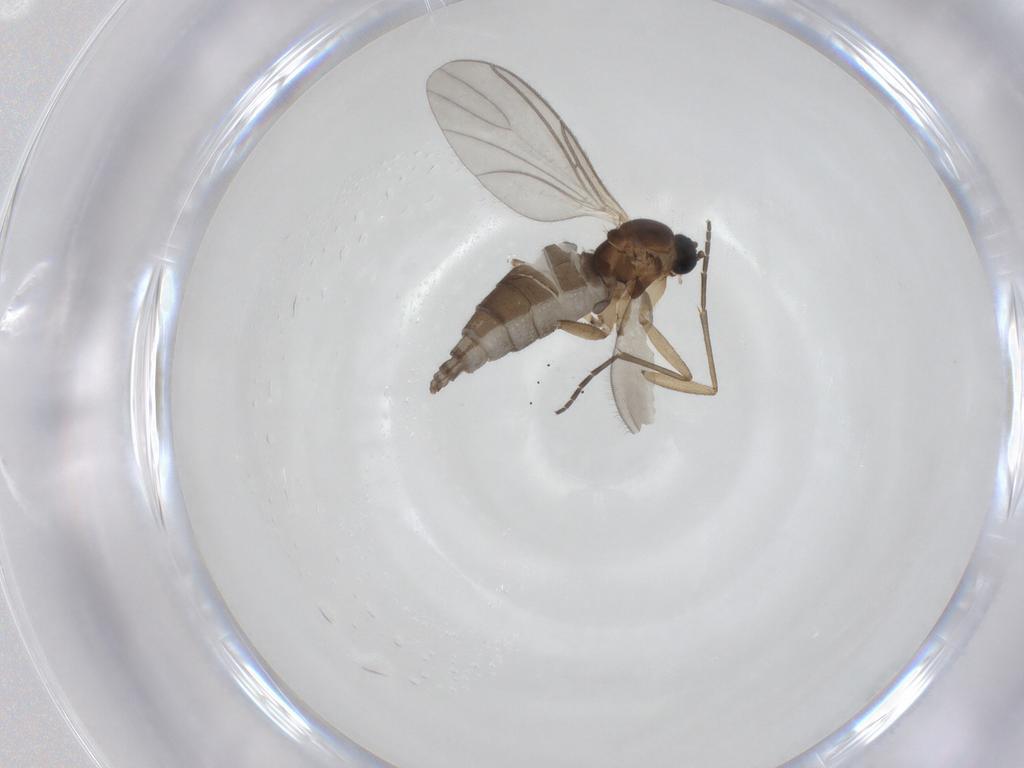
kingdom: Animalia
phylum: Arthropoda
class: Insecta
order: Diptera
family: Sciaridae
